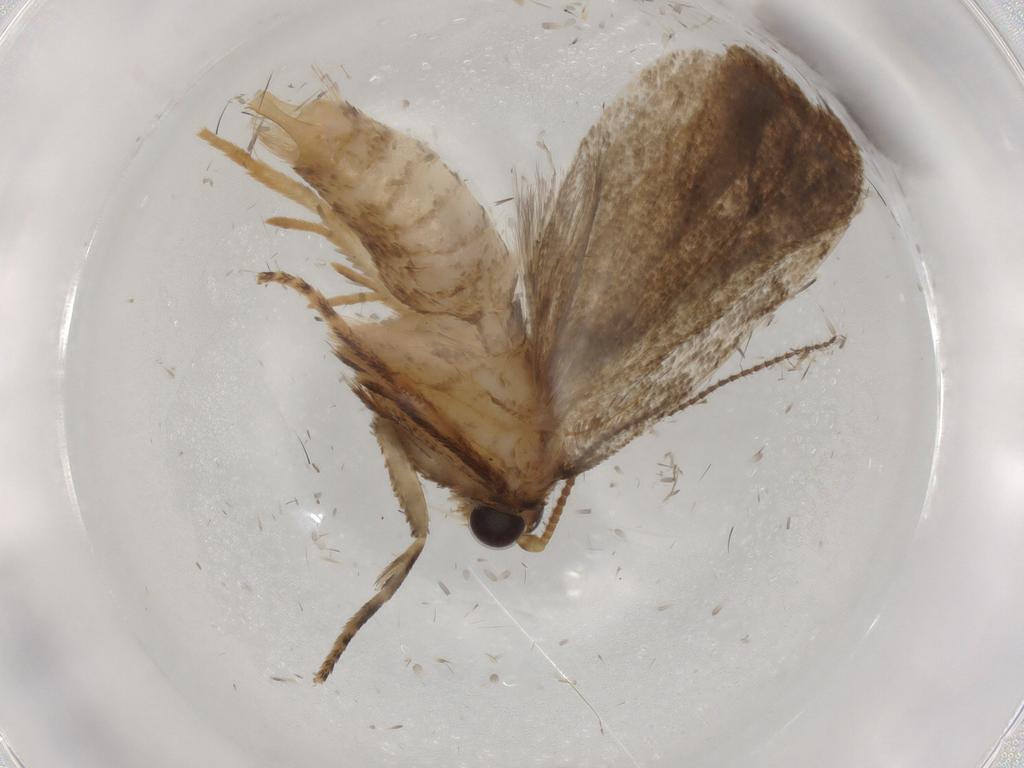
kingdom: Animalia
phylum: Arthropoda
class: Insecta
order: Lepidoptera
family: Tortricidae
